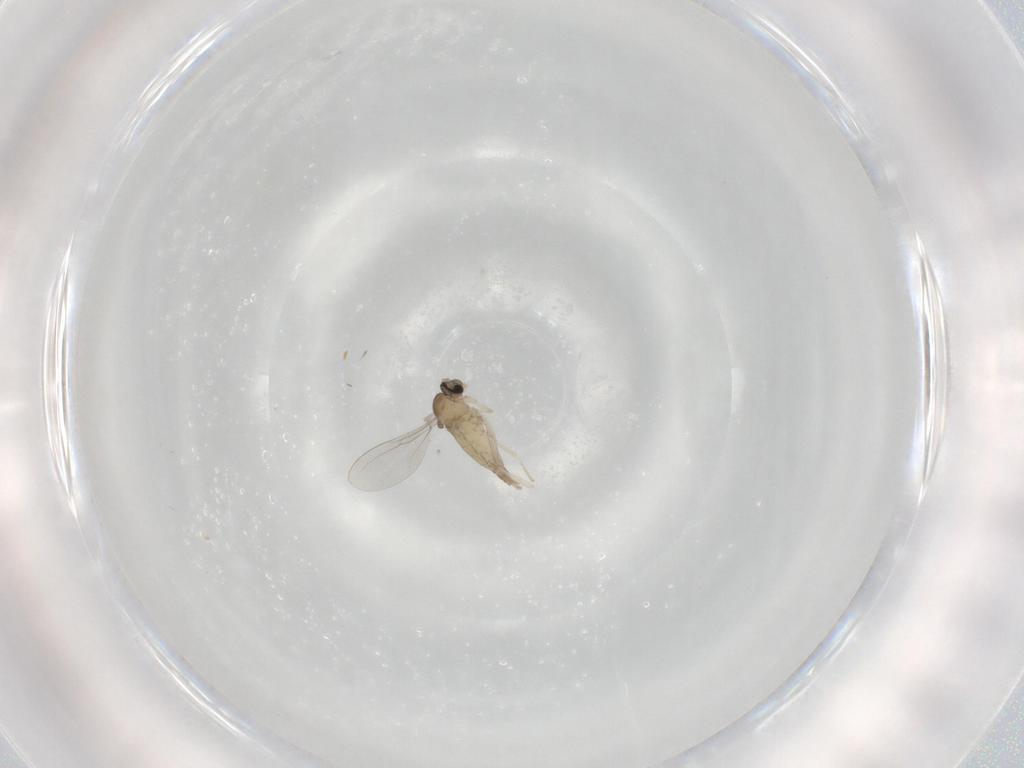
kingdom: Animalia
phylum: Arthropoda
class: Insecta
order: Diptera
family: Cecidomyiidae
